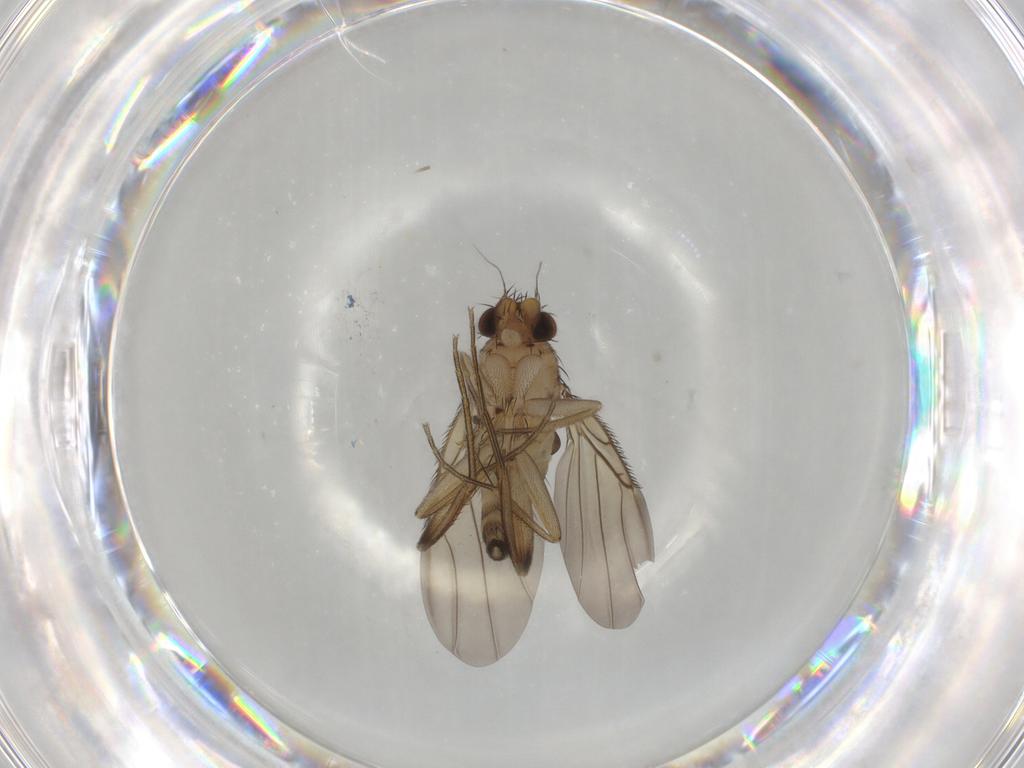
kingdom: Animalia
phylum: Arthropoda
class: Insecta
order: Diptera
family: Phoridae
